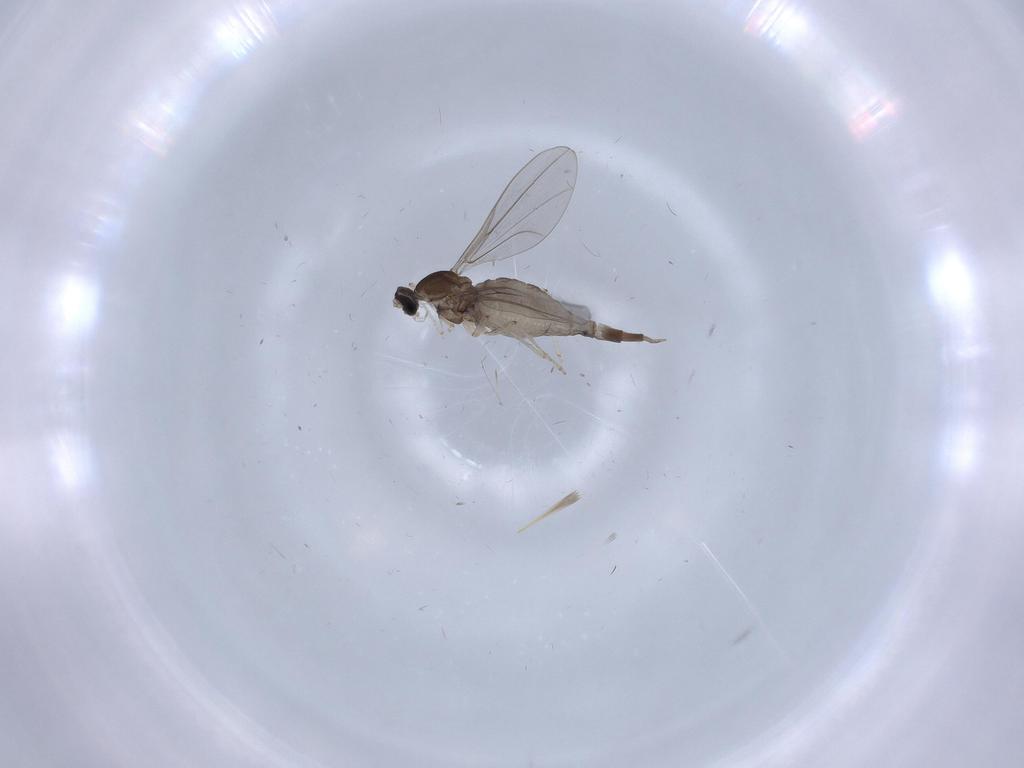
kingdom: Animalia
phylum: Arthropoda
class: Insecta
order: Diptera
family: Cecidomyiidae
